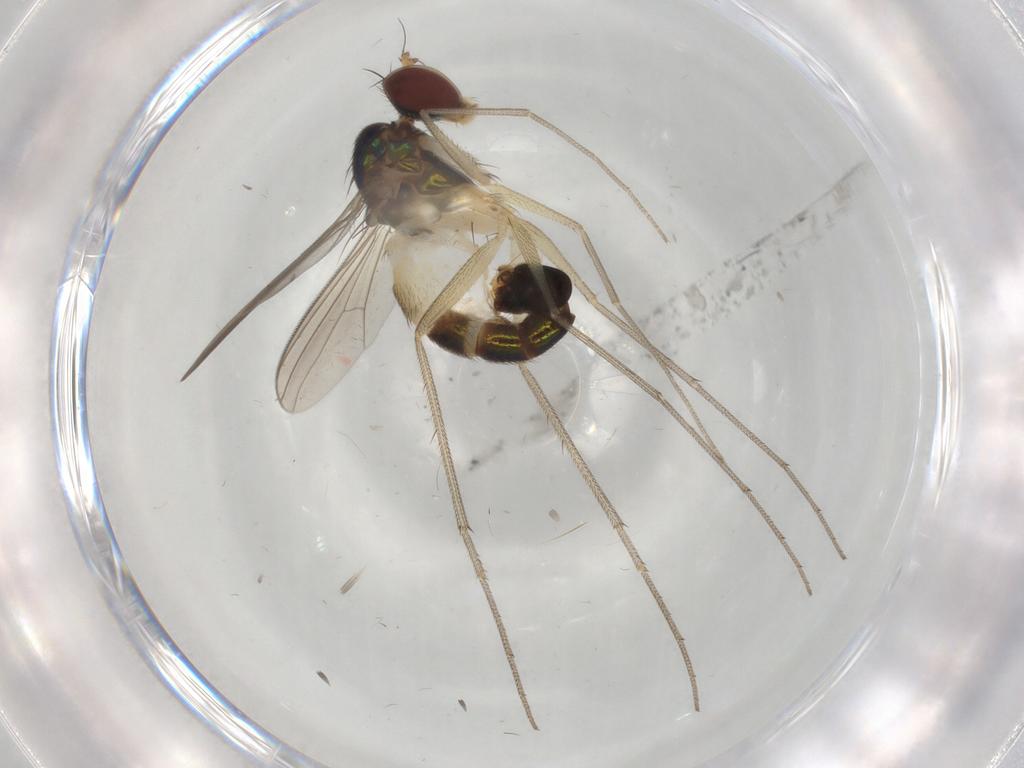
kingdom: Animalia
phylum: Arthropoda
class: Insecta
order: Diptera
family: Dolichopodidae
